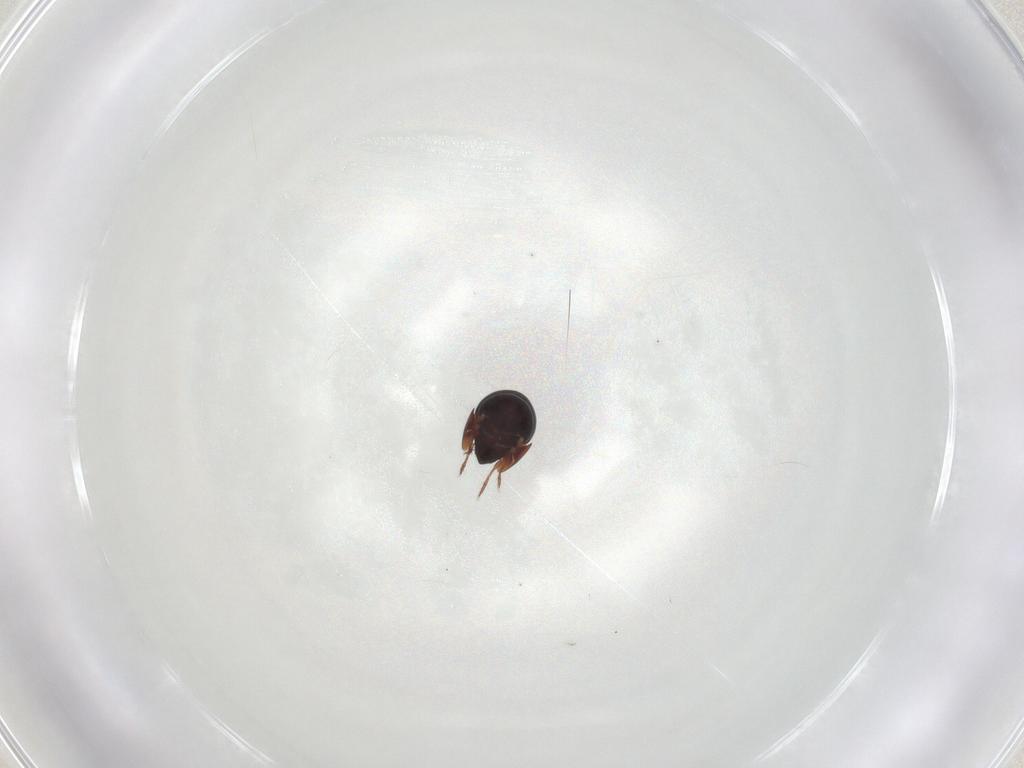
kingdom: Animalia
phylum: Arthropoda
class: Arachnida
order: Sarcoptiformes
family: Galumnidae
